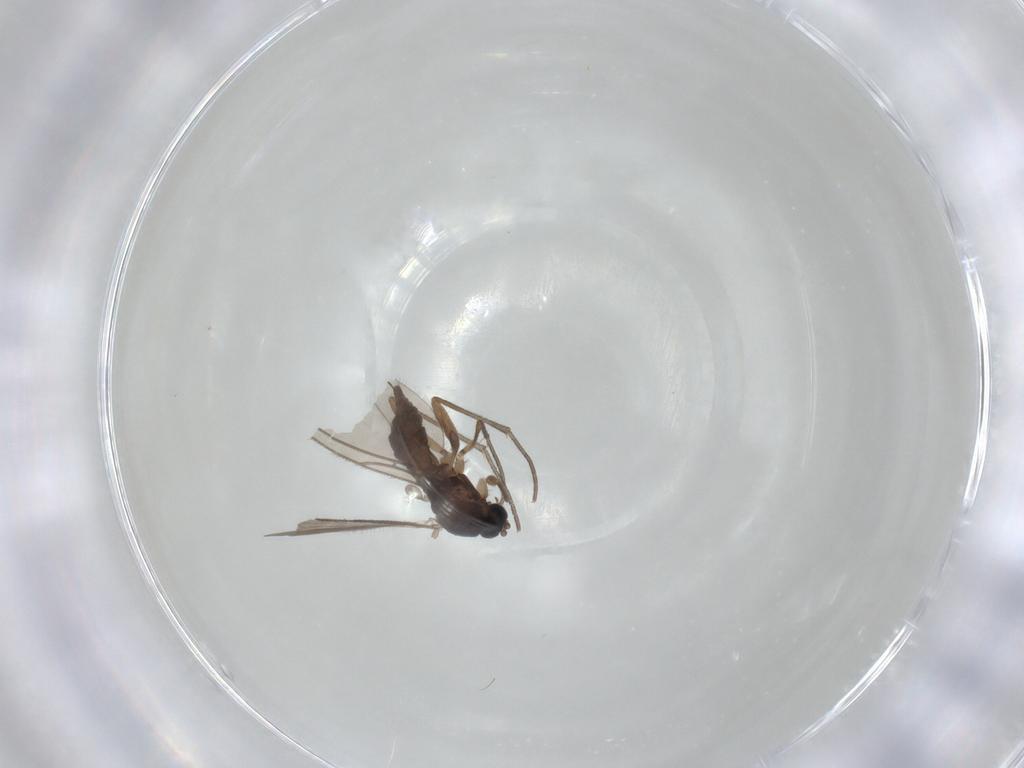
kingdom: Animalia
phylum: Arthropoda
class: Insecta
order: Diptera
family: Sciaridae
